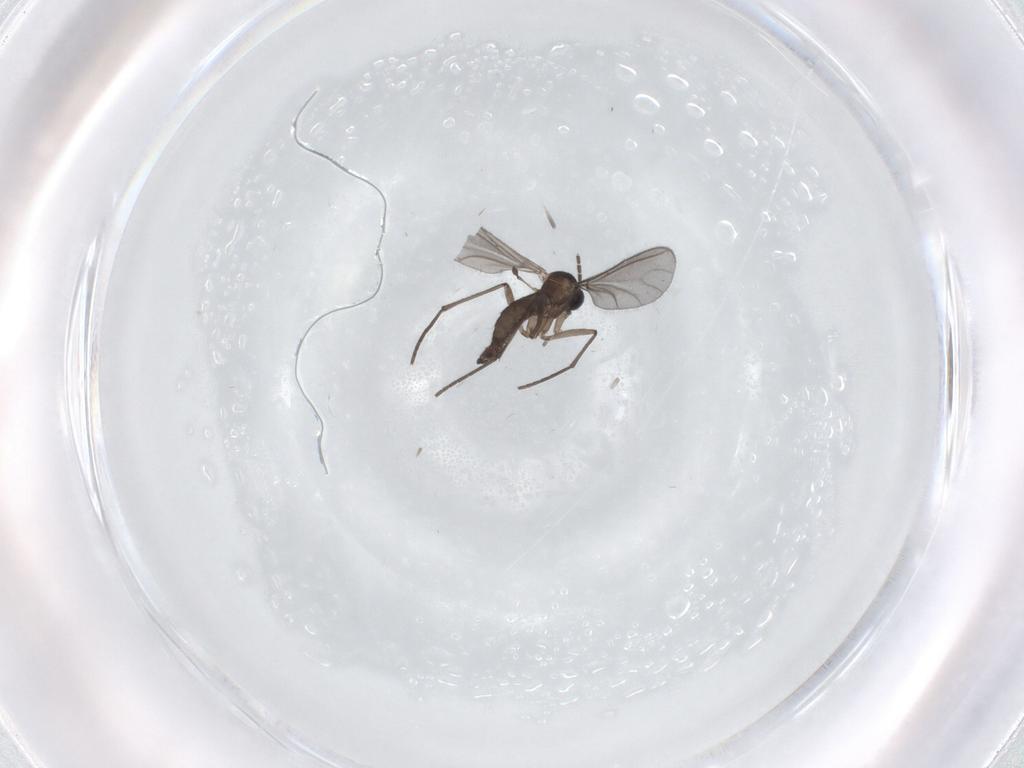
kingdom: Animalia
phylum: Arthropoda
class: Insecta
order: Diptera
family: Sciaridae
